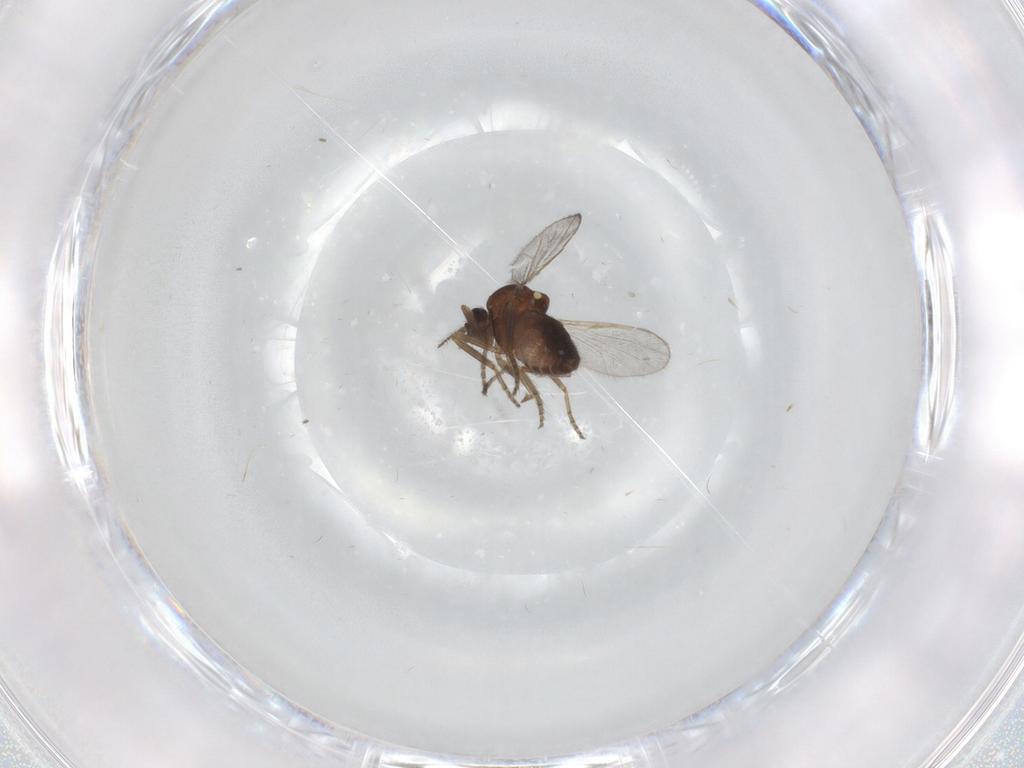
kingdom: Animalia
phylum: Arthropoda
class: Insecta
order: Diptera
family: Ceratopogonidae
